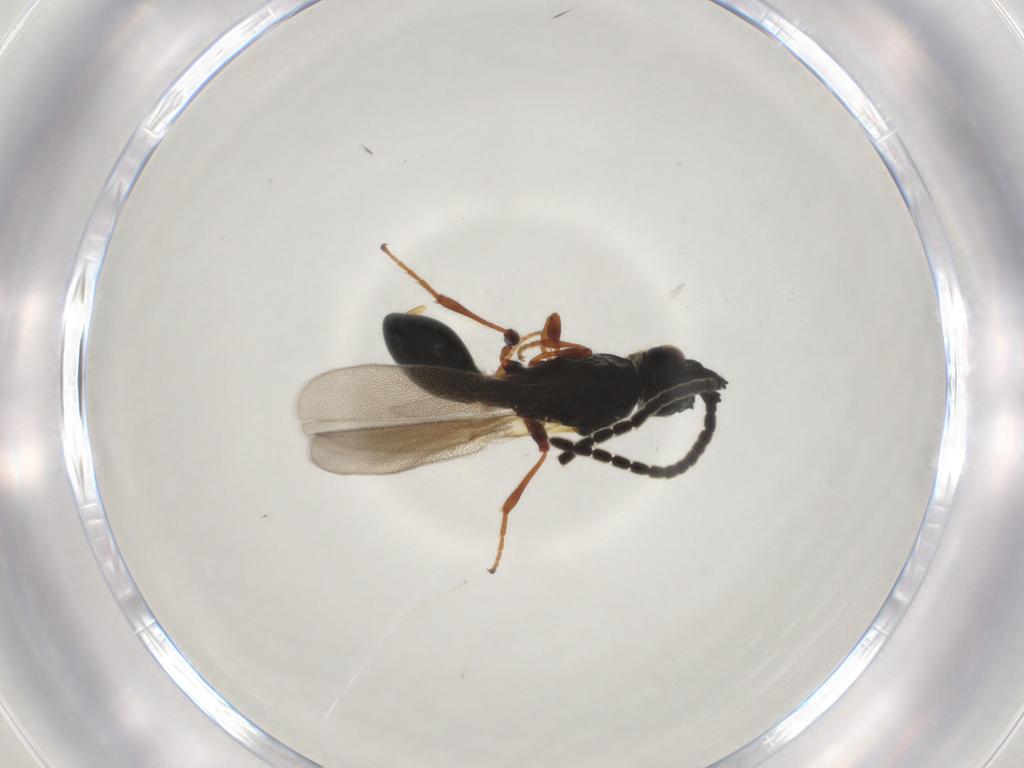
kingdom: Animalia
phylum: Arthropoda
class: Insecta
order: Hymenoptera
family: Diapriidae
